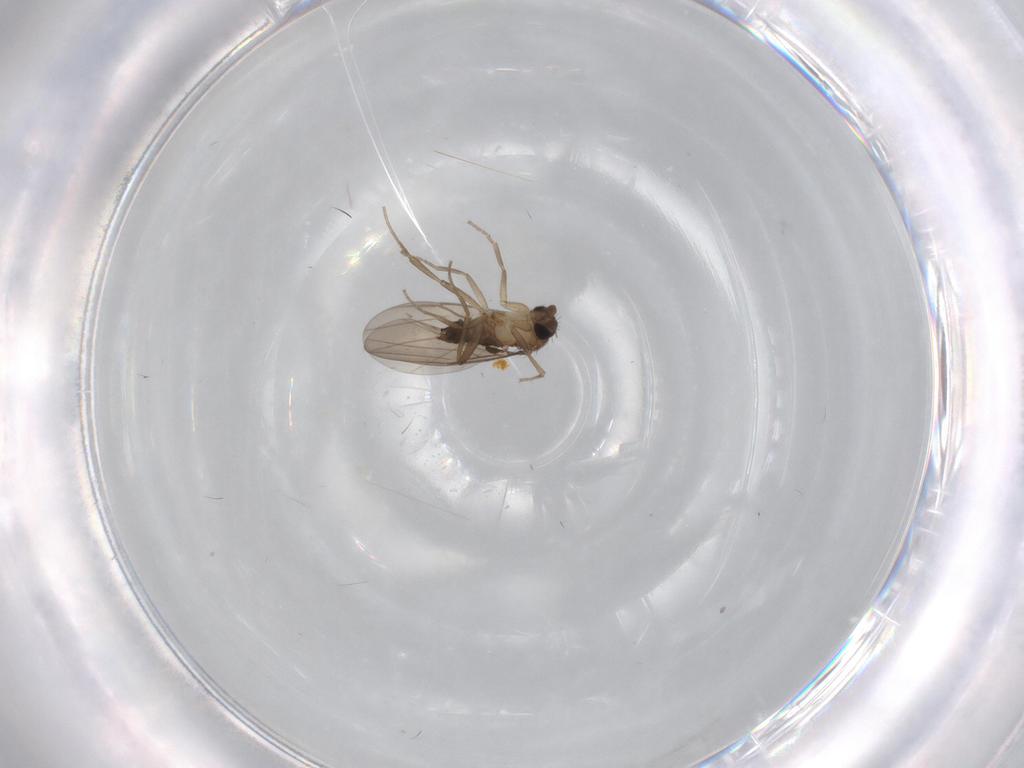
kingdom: Animalia
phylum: Arthropoda
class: Insecta
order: Diptera
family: Phoridae
